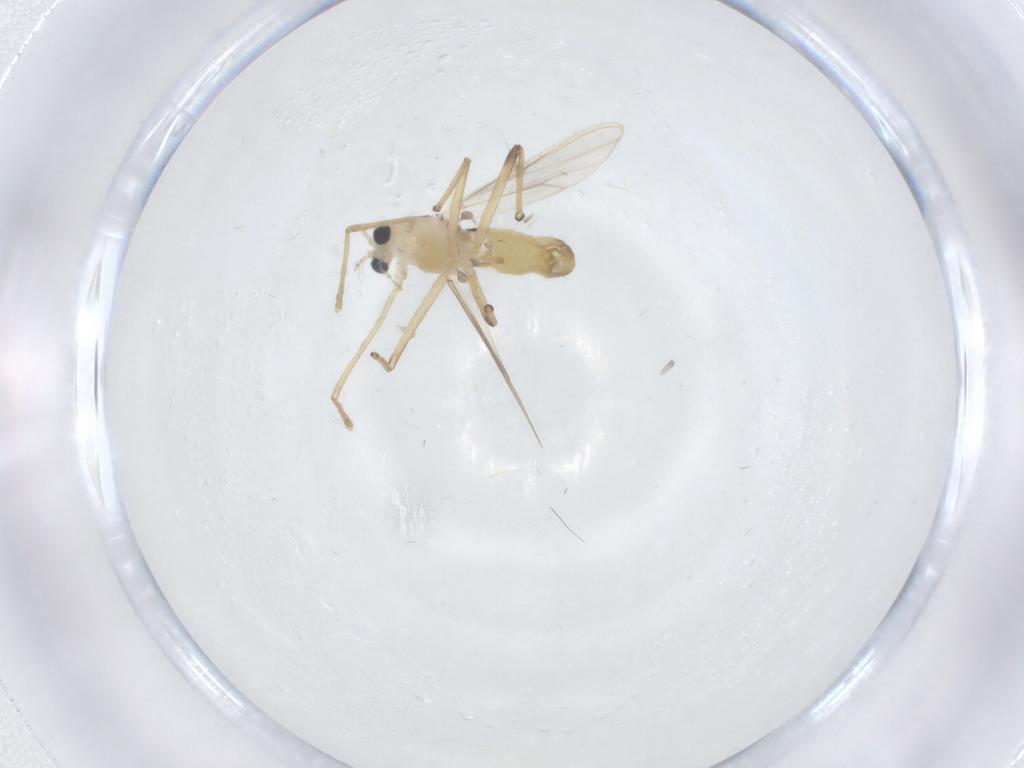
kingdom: Animalia
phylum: Arthropoda
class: Insecta
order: Diptera
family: Chironomidae
